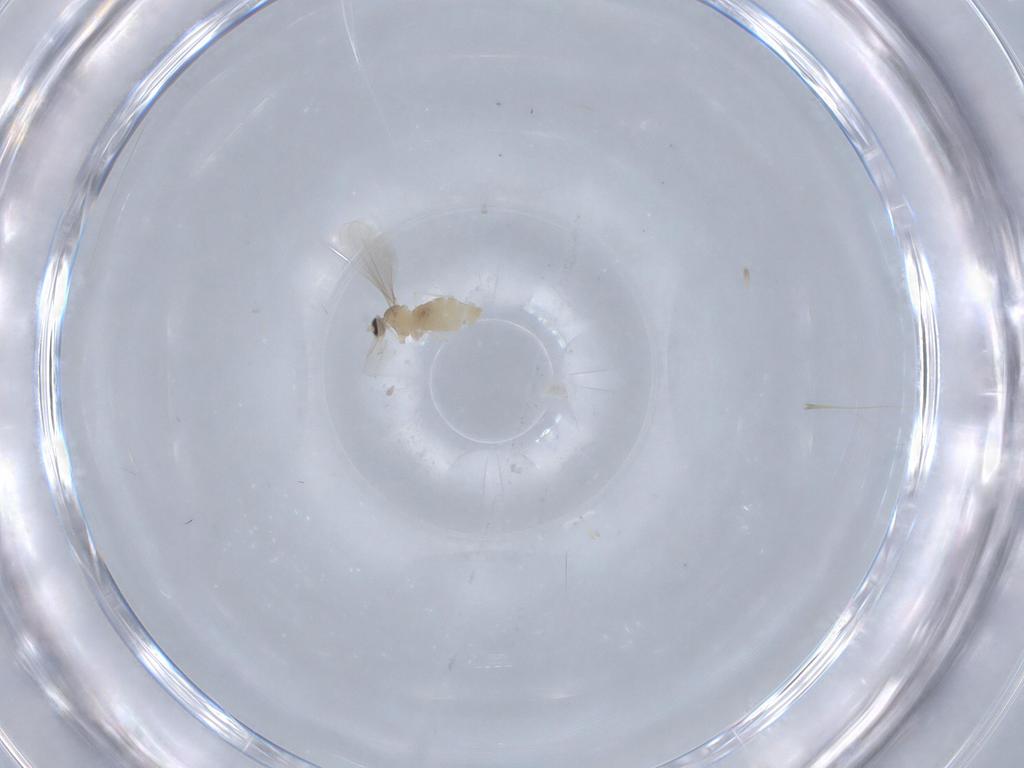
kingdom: Animalia
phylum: Arthropoda
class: Insecta
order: Diptera
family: Cecidomyiidae
